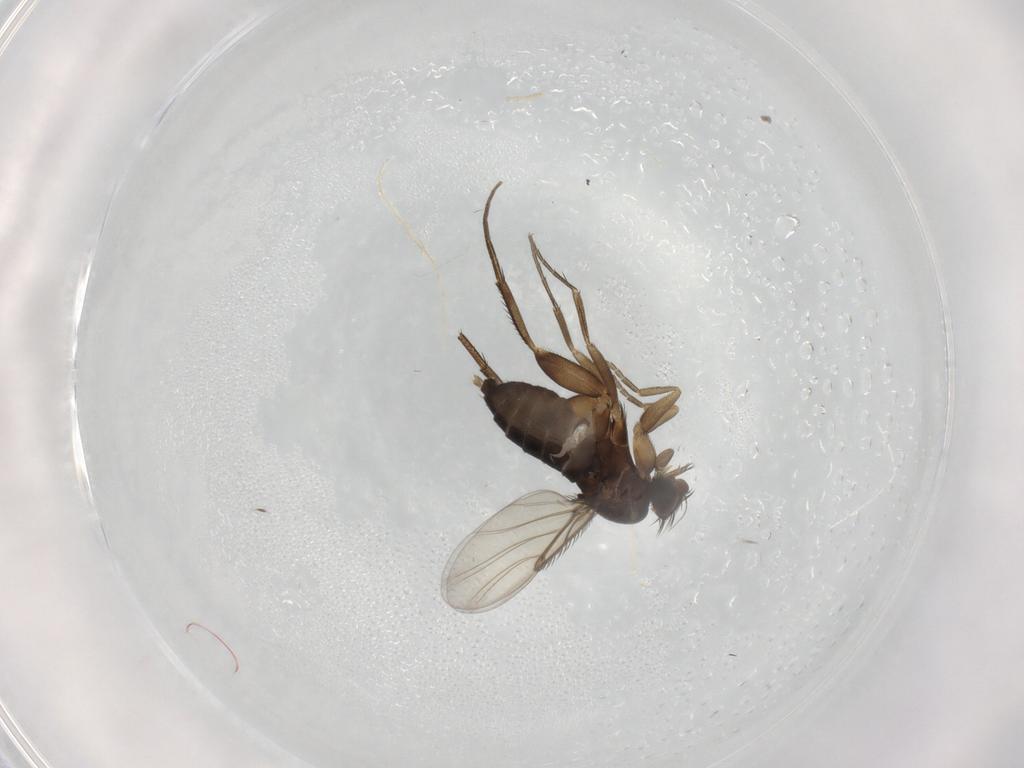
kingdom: Animalia
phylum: Arthropoda
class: Insecta
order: Diptera
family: Phoridae
